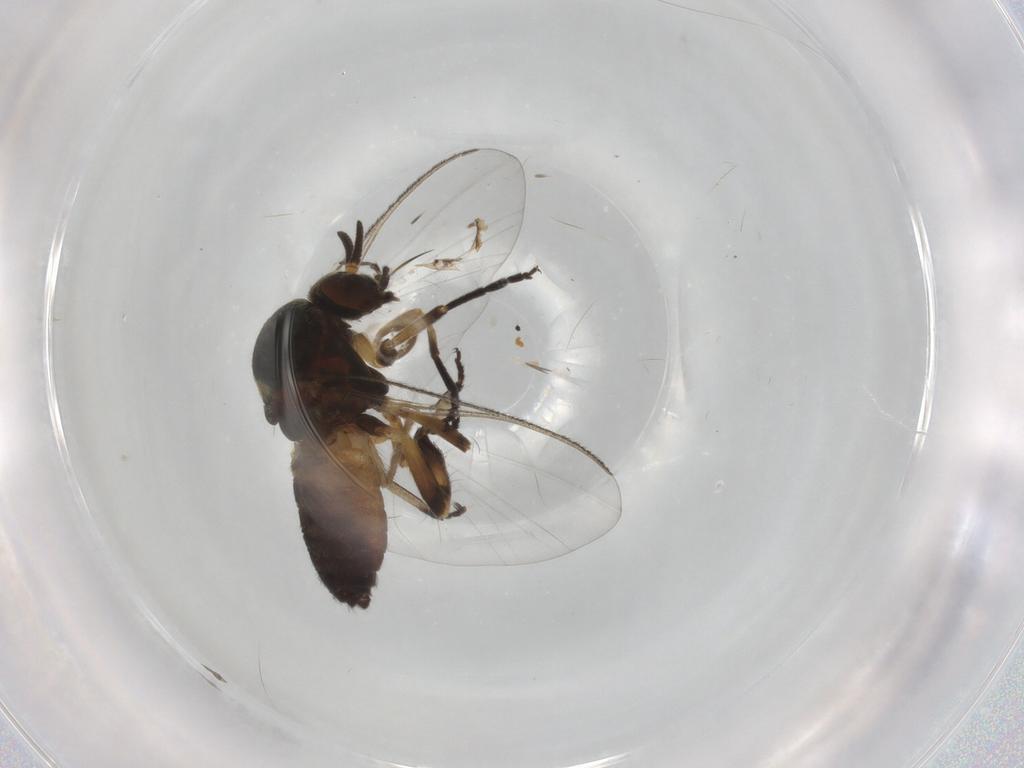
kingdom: Animalia
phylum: Arthropoda
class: Insecta
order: Diptera
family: Simuliidae
